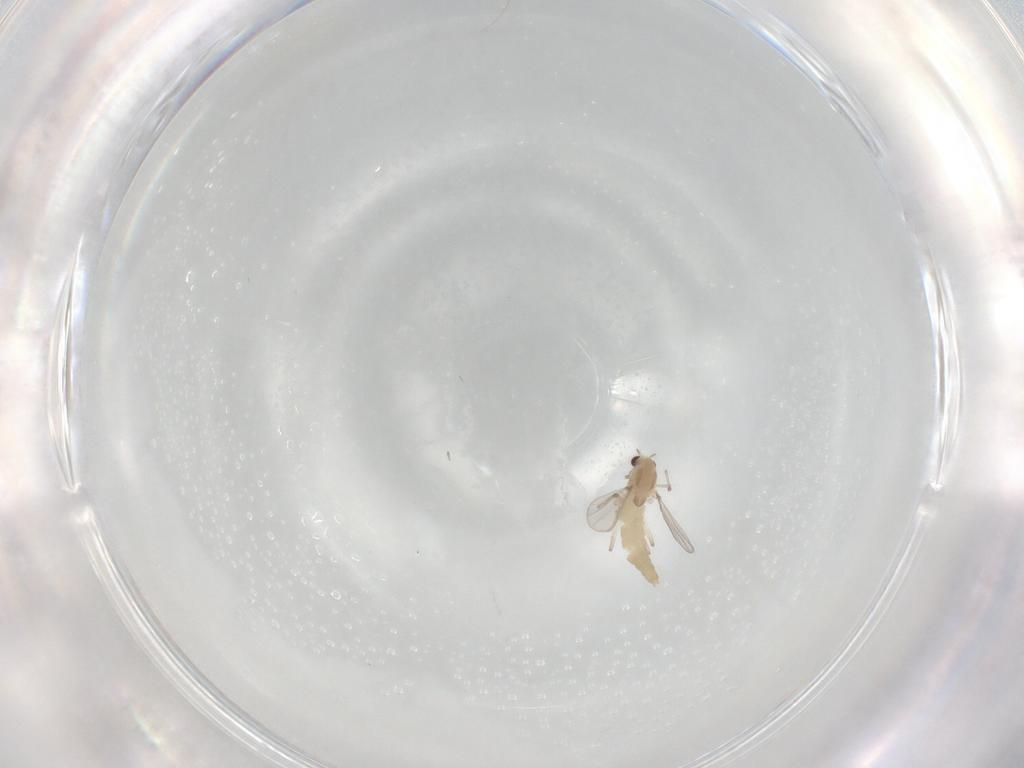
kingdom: Animalia
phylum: Arthropoda
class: Insecta
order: Diptera
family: Chironomidae
